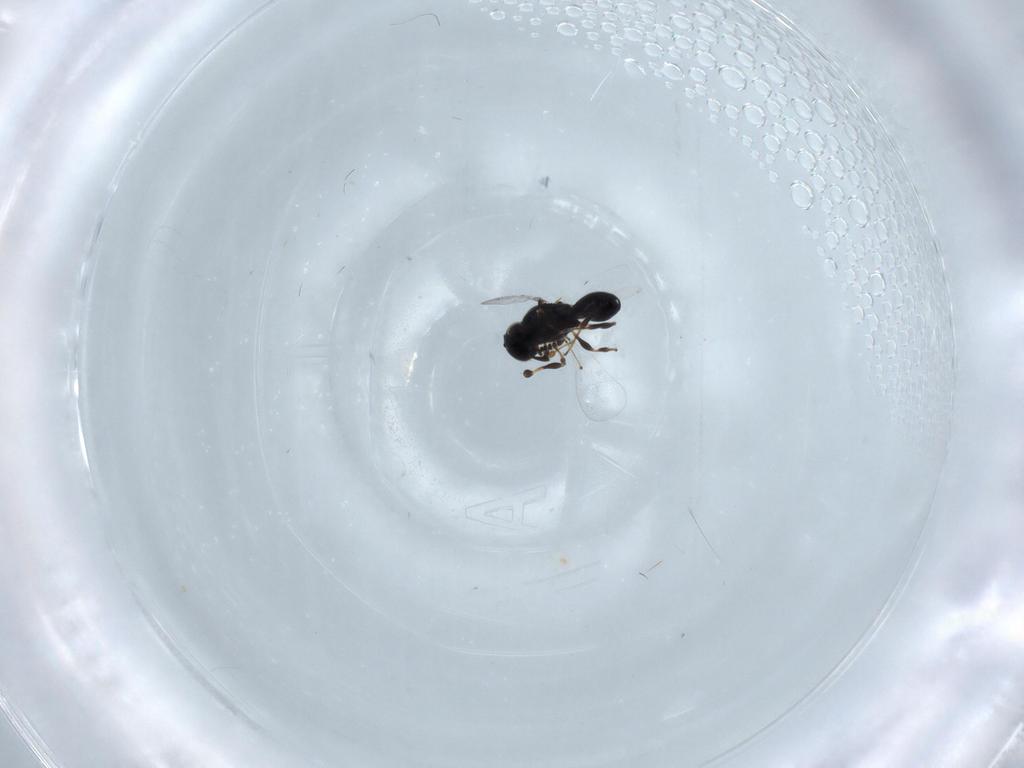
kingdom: Animalia
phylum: Arthropoda
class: Insecta
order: Hymenoptera
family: Platygastridae
